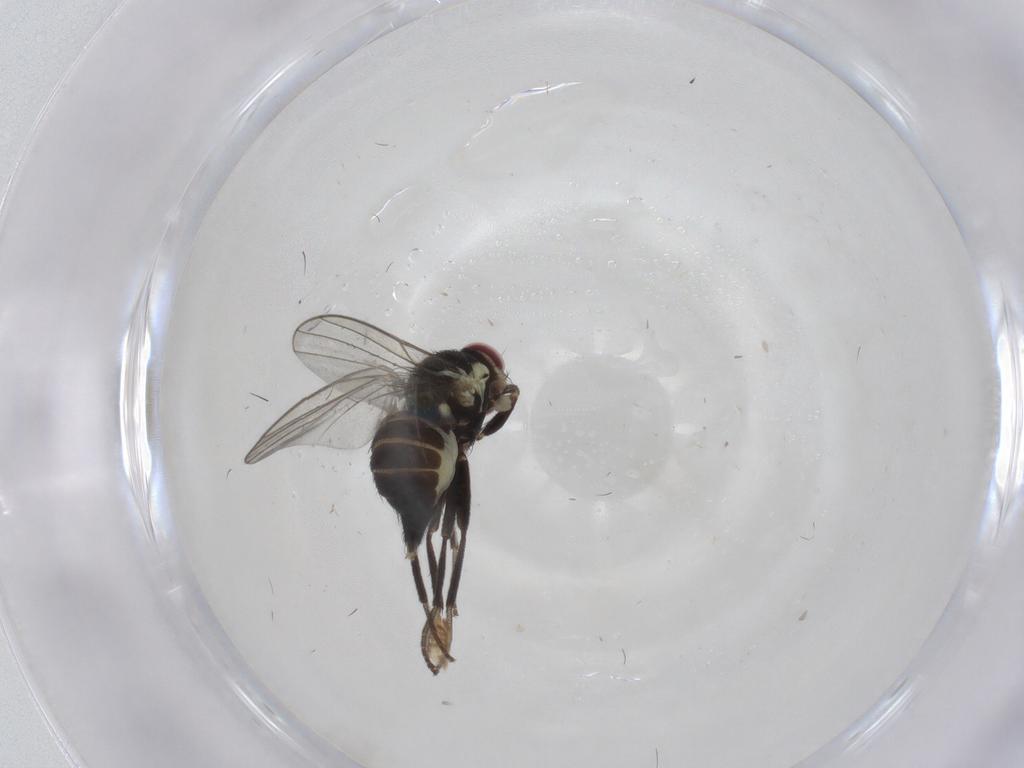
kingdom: Animalia
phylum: Arthropoda
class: Insecta
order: Diptera
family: Agromyzidae
